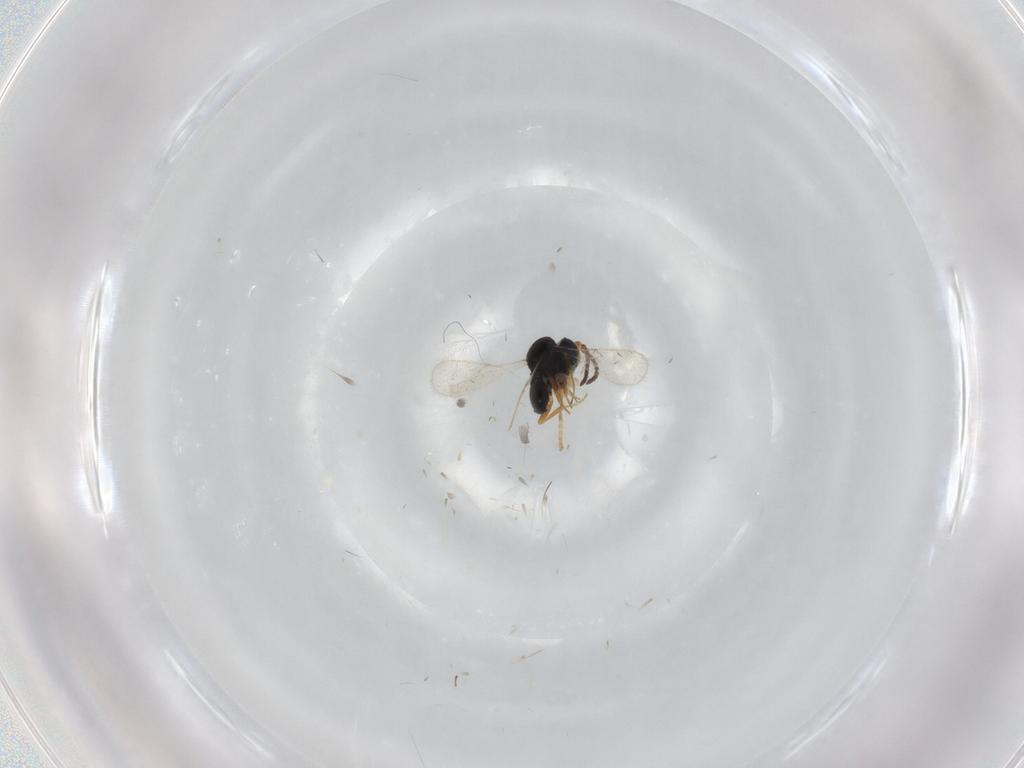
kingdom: Animalia
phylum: Arthropoda
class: Insecta
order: Hymenoptera
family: Scelionidae
